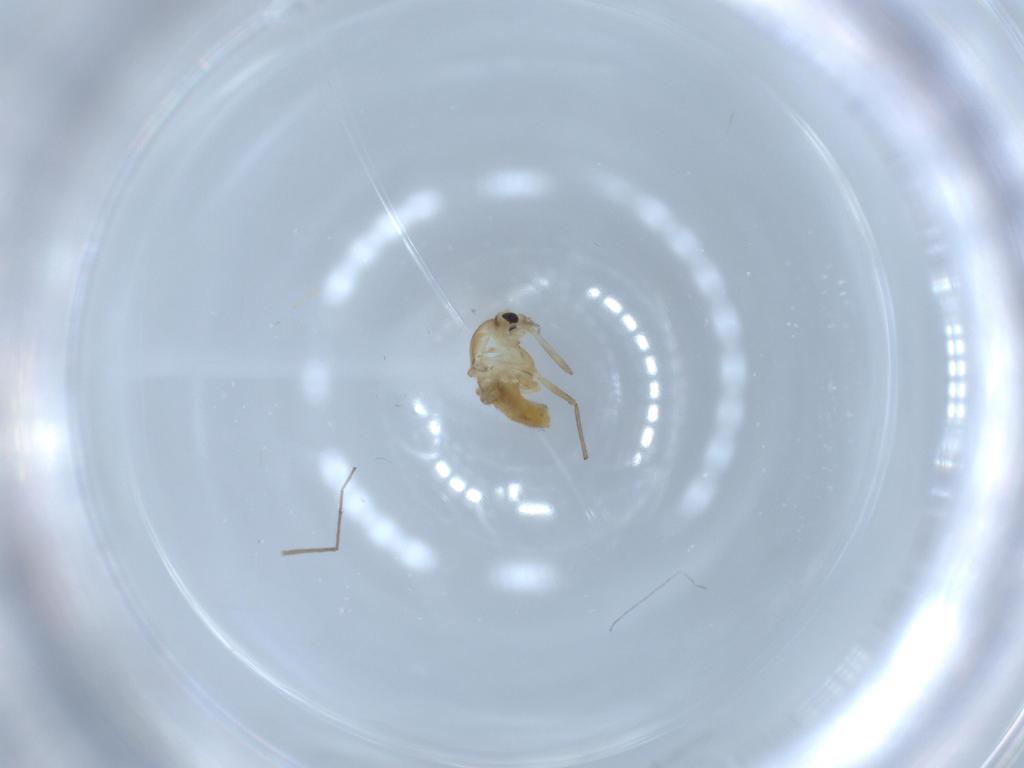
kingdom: Animalia
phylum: Arthropoda
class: Insecta
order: Diptera
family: Chironomidae
